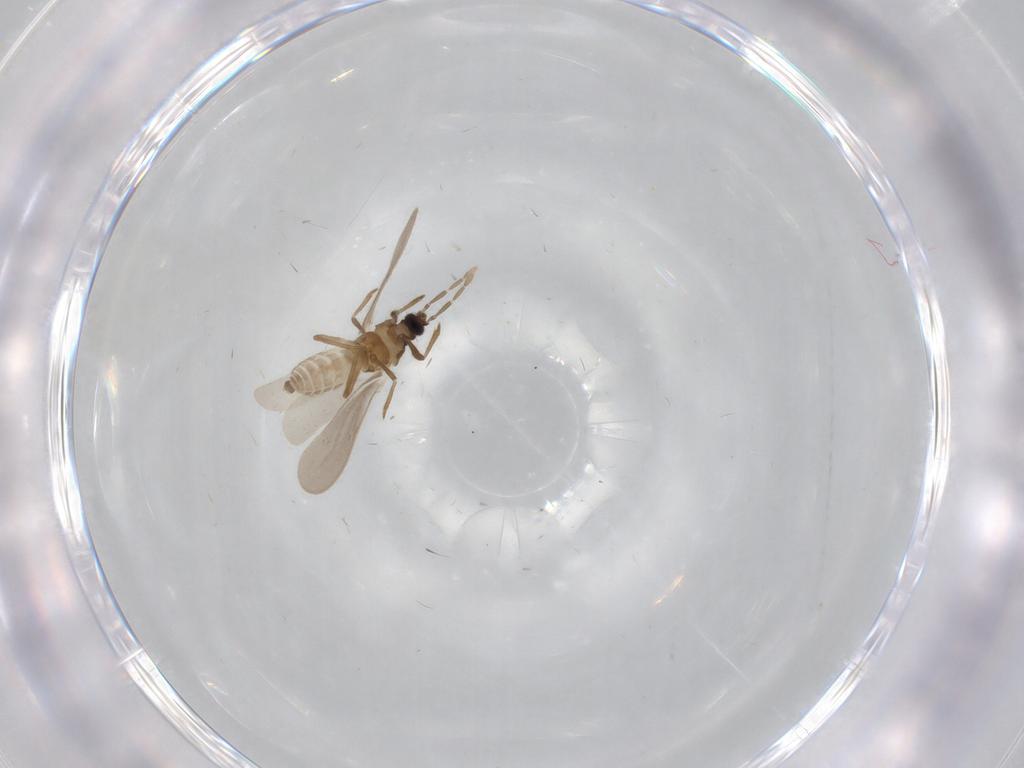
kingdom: Animalia
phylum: Arthropoda
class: Insecta
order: Hemiptera
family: Enicocephalidae
